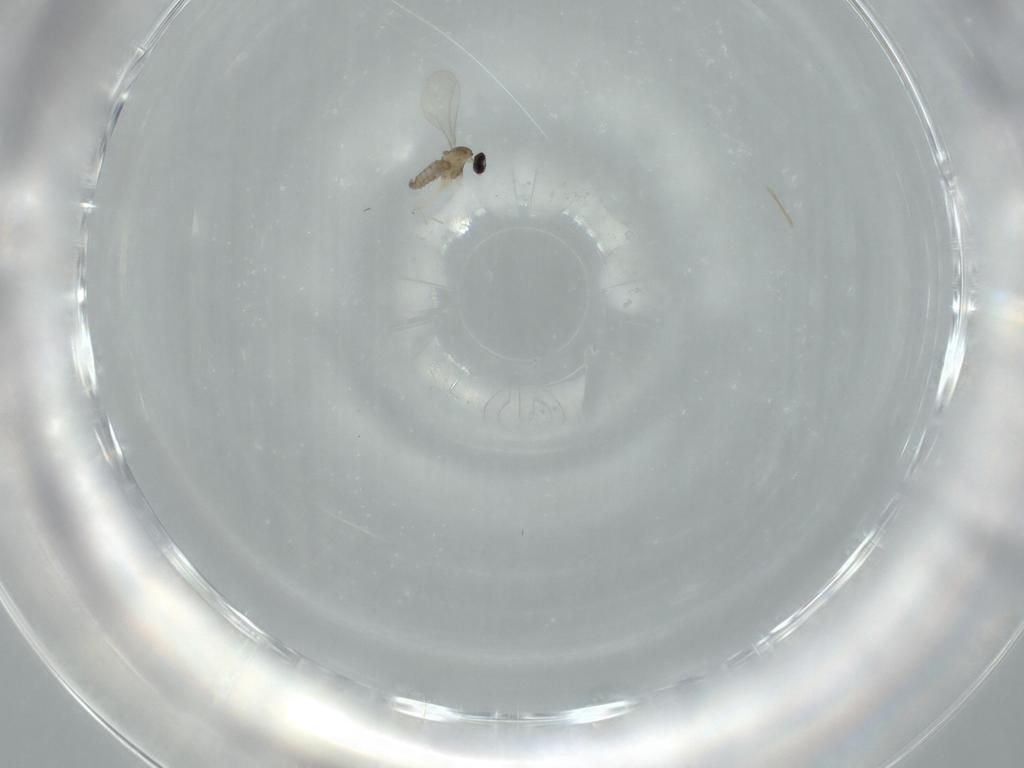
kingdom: Animalia
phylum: Arthropoda
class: Insecta
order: Diptera
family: Cecidomyiidae
